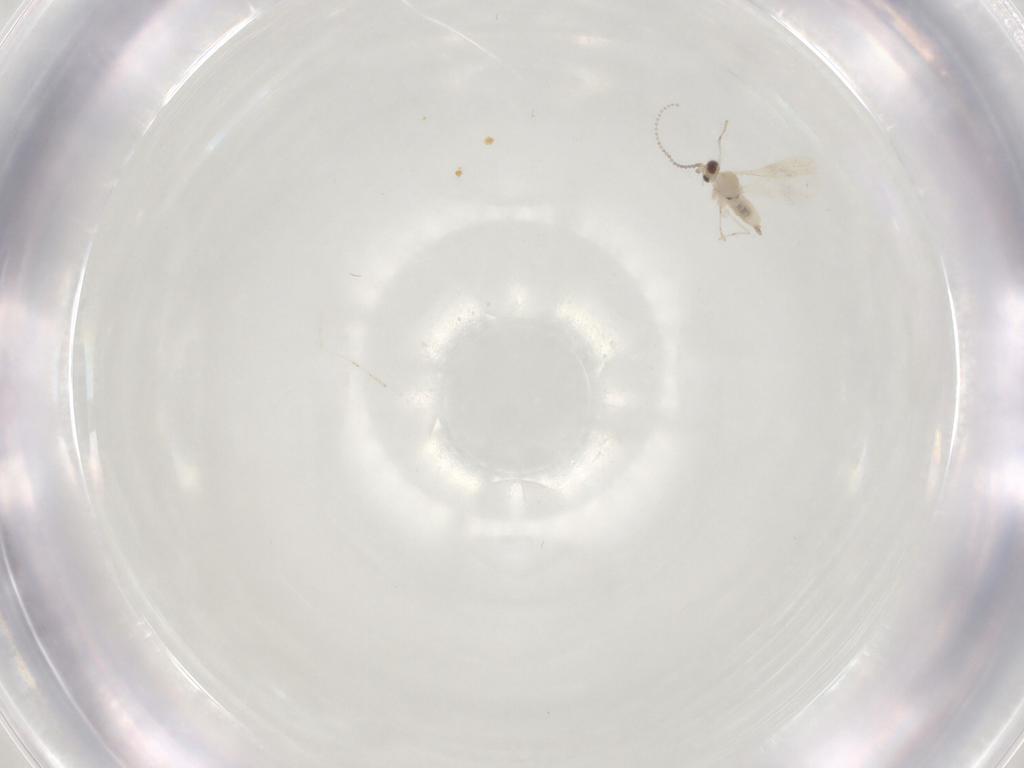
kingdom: Animalia
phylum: Arthropoda
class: Insecta
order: Diptera
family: Cecidomyiidae
